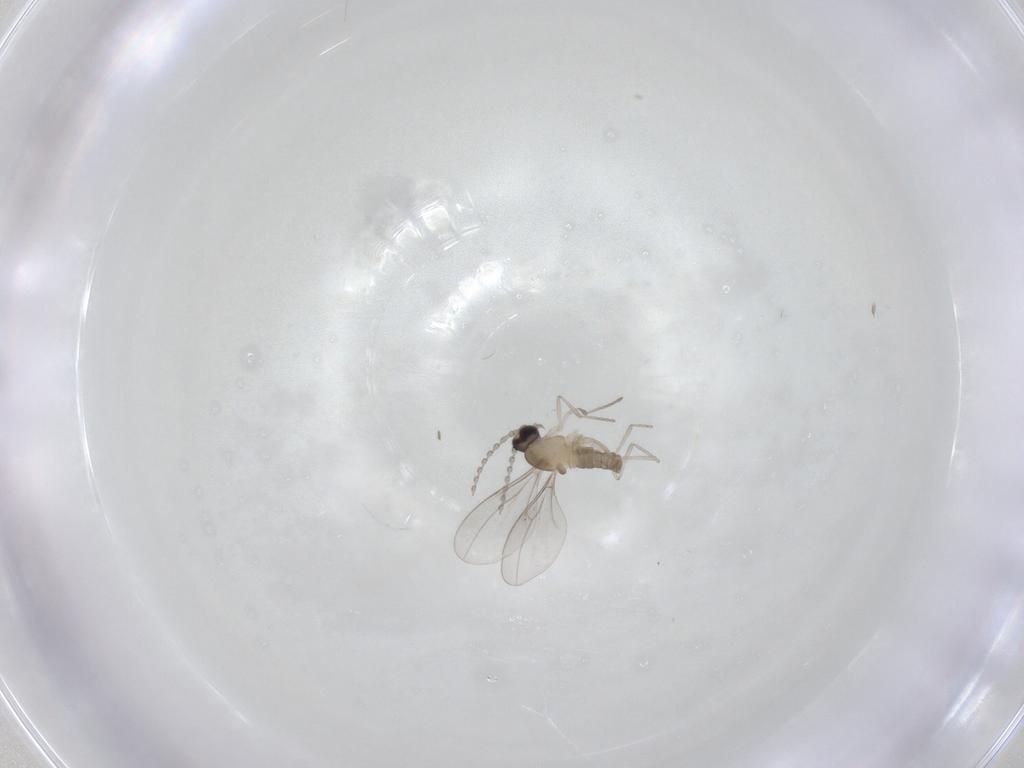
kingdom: Animalia
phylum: Arthropoda
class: Insecta
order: Diptera
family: Cecidomyiidae
